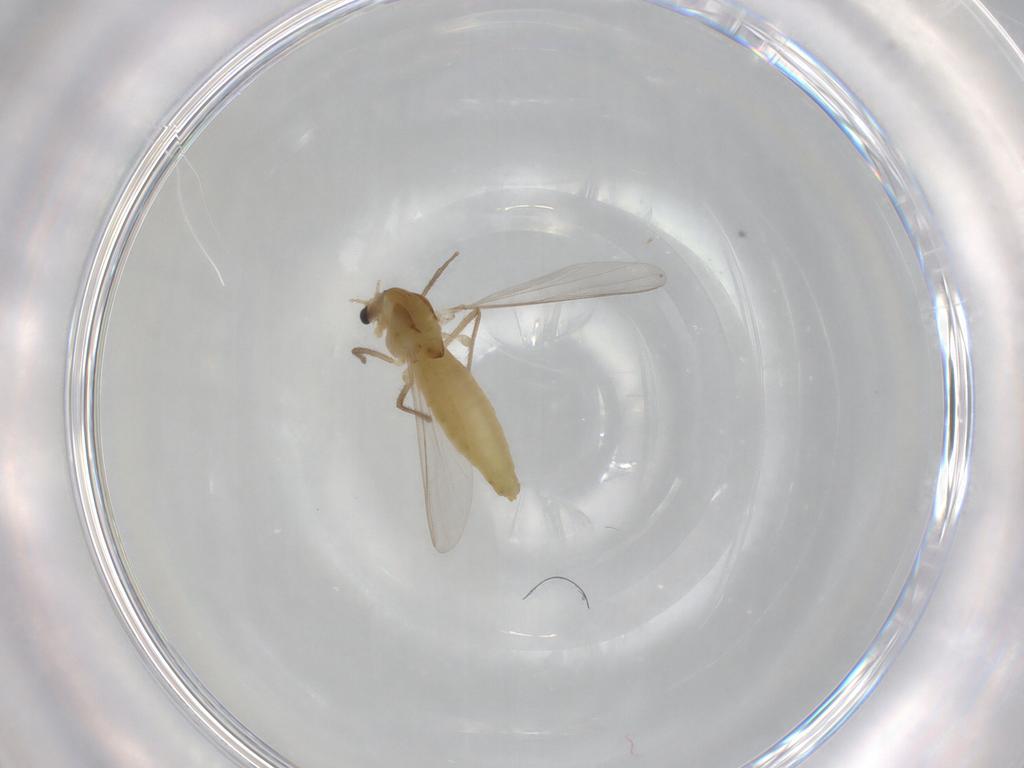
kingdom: Animalia
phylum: Arthropoda
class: Insecta
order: Diptera
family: Chironomidae
